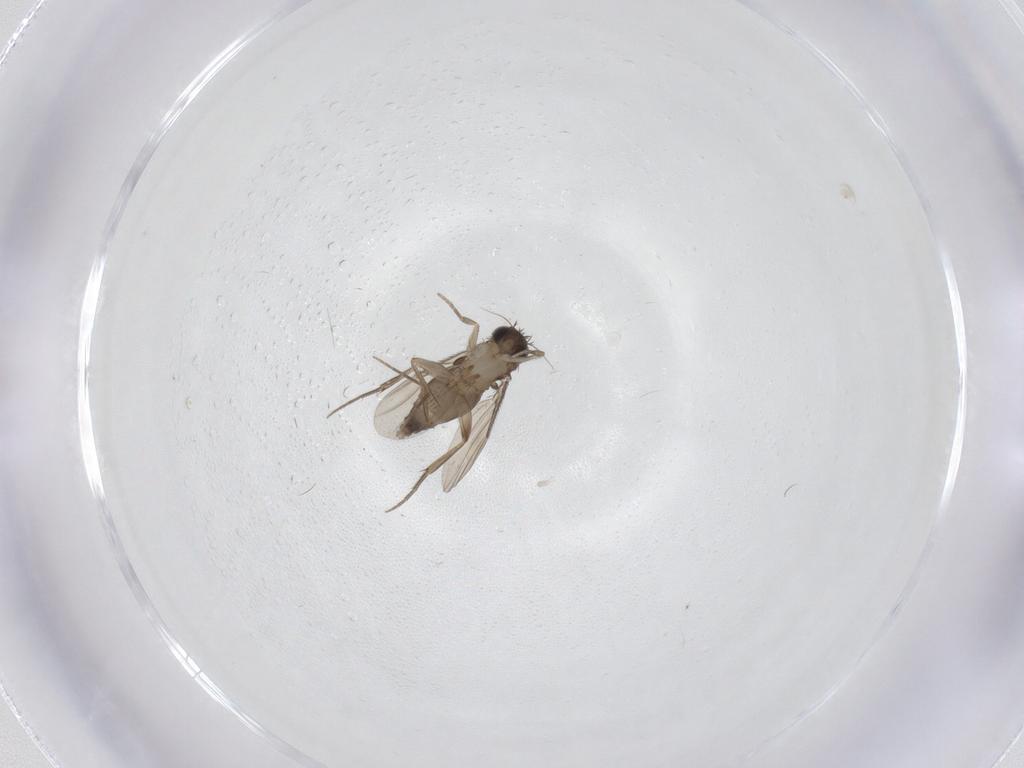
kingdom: Animalia
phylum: Arthropoda
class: Insecta
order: Diptera
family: Phoridae
